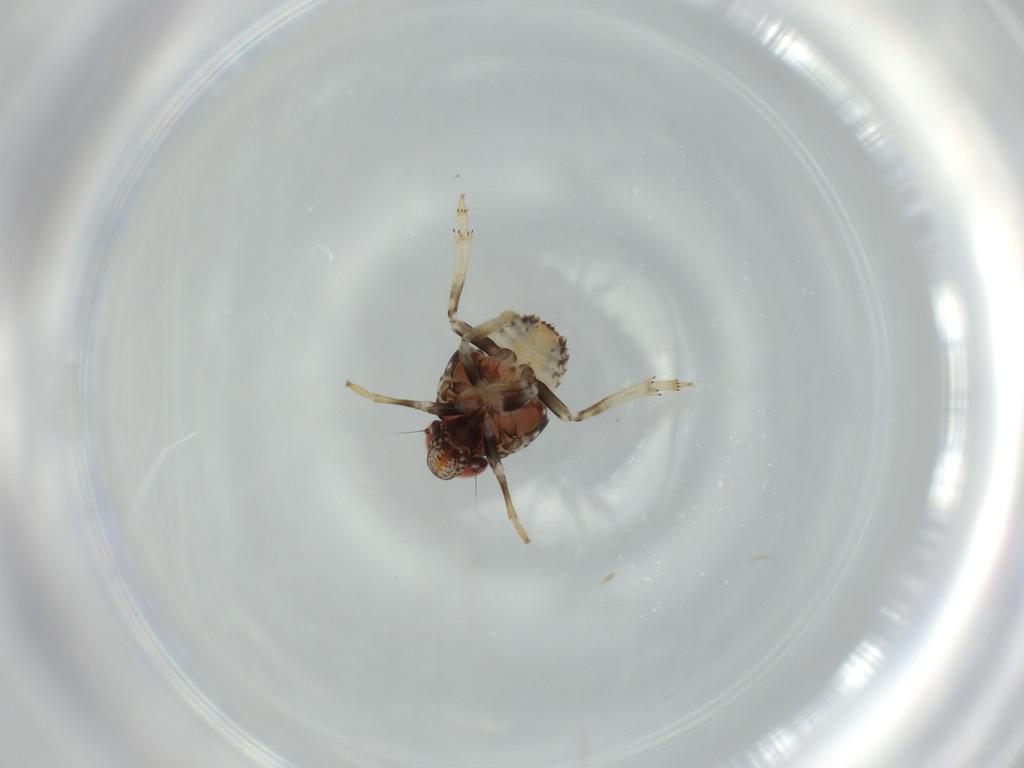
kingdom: Animalia
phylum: Arthropoda
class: Insecta
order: Hemiptera
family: Issidae
